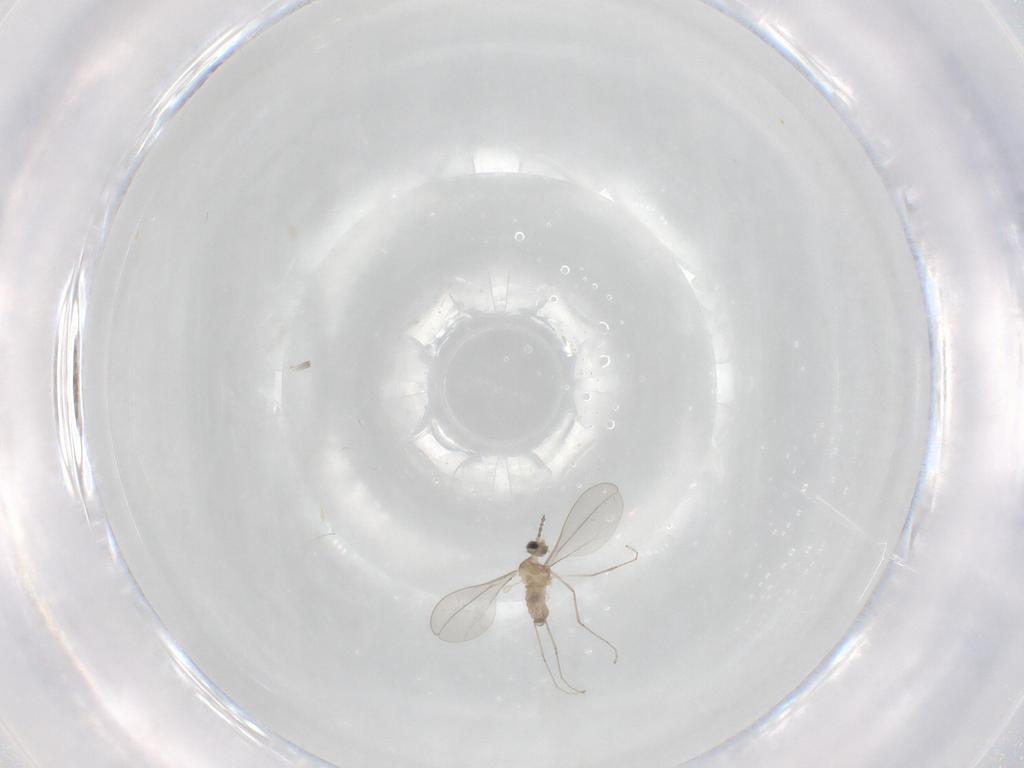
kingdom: Animalia
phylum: Arthropoda
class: Insecta
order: Diptera
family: Cecidomyiidae
